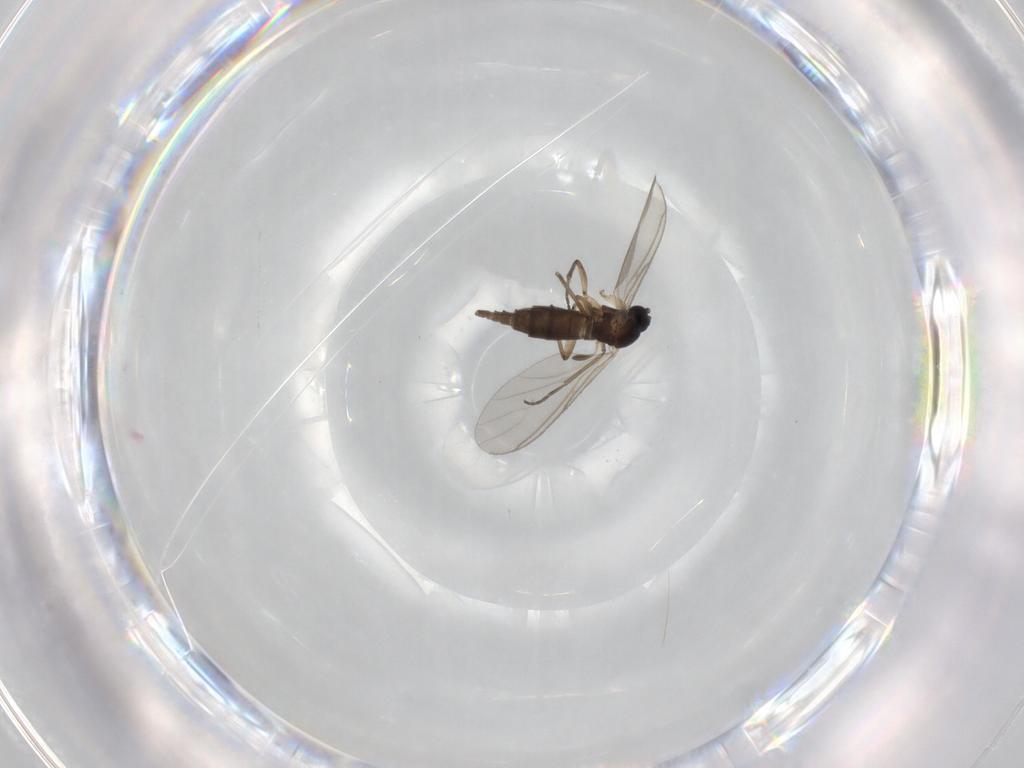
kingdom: Animalia
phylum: Arthropoda
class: Insecta
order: Diptera
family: Sciaridae
